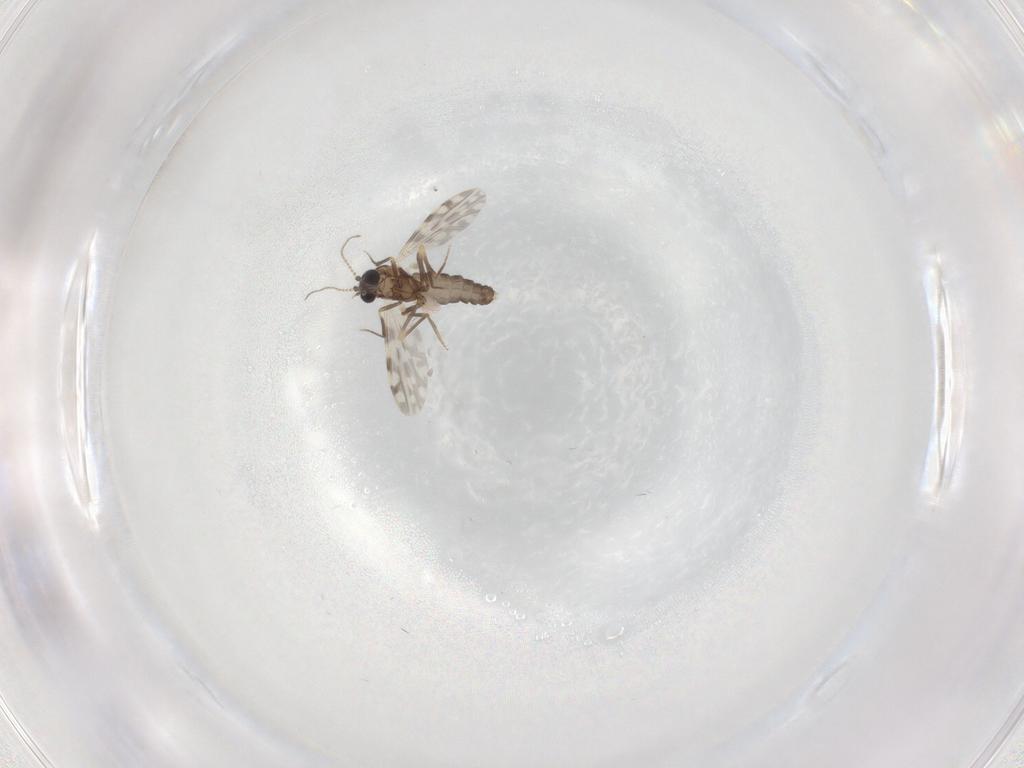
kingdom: Animalia
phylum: Arthropoda
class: Insecta
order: Diptera
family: Ceratopogonidae
